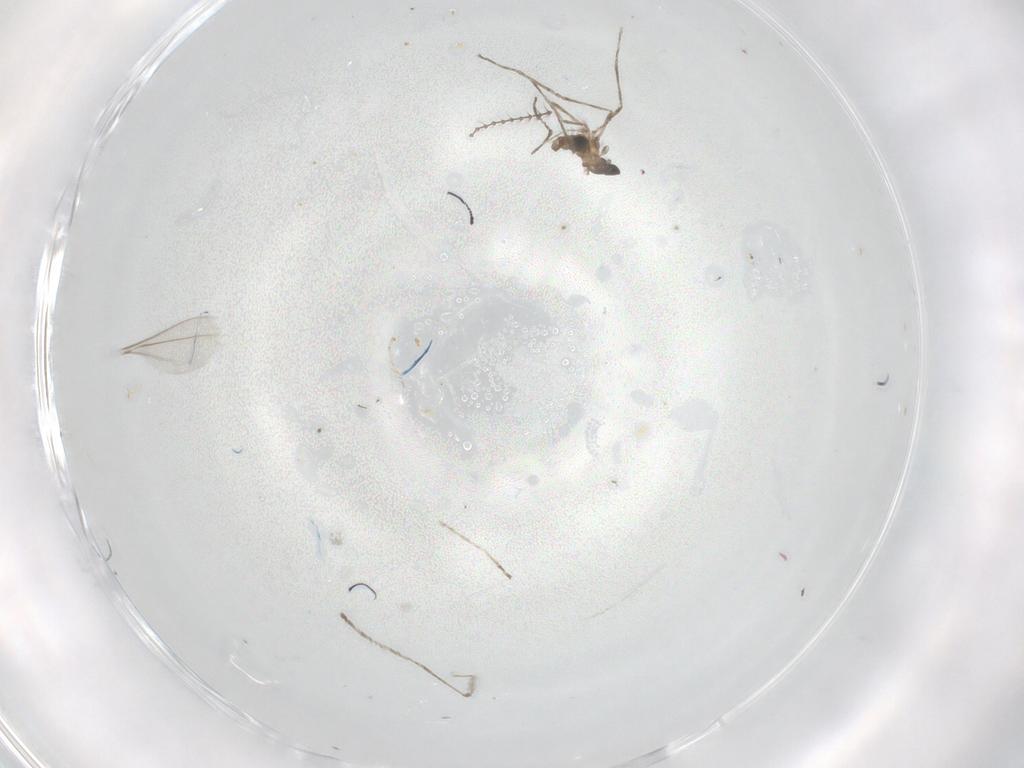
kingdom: Animalia
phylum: Arthropoda
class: Insecta
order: Diptera
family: Cecidomyiidae
